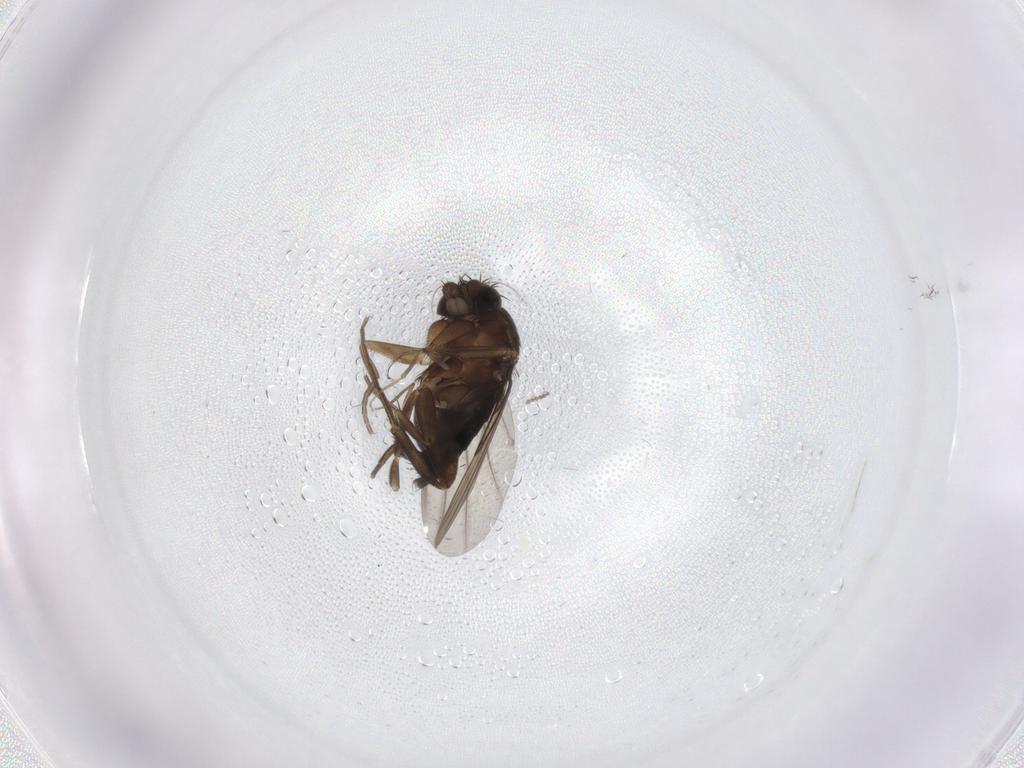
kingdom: Animalia
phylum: Arthropoda
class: Insecta
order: Diptera
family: Phoridae
